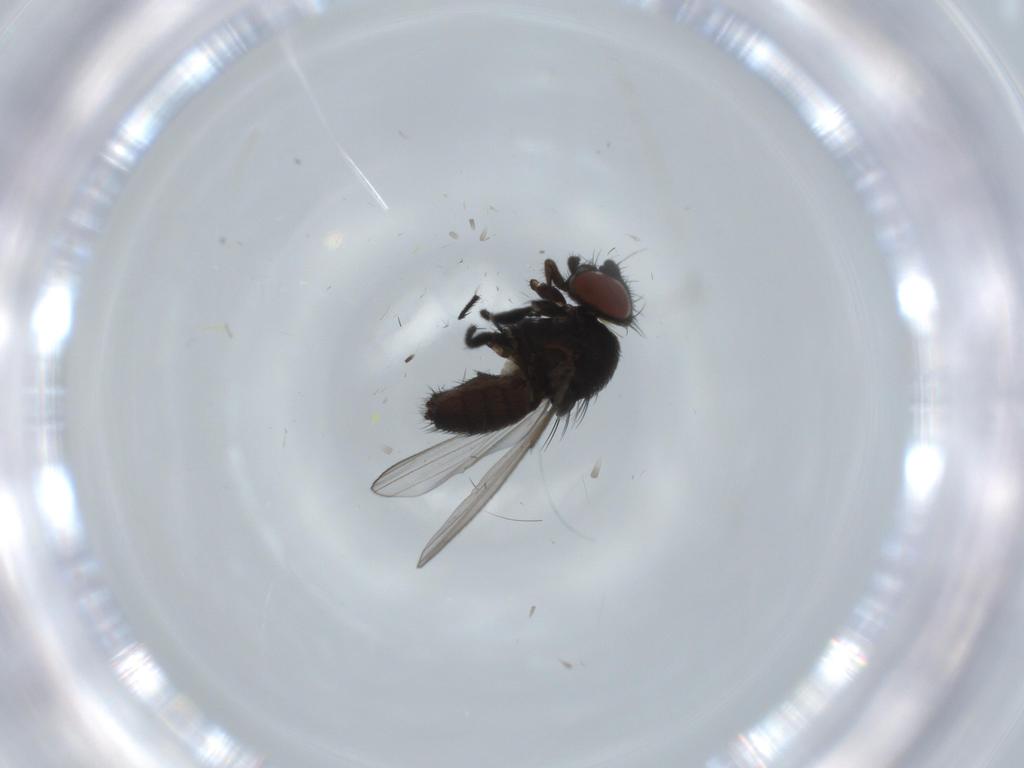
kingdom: Animalia
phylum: Arthropoda
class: Insecta
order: Diptera
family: Milichiidae
